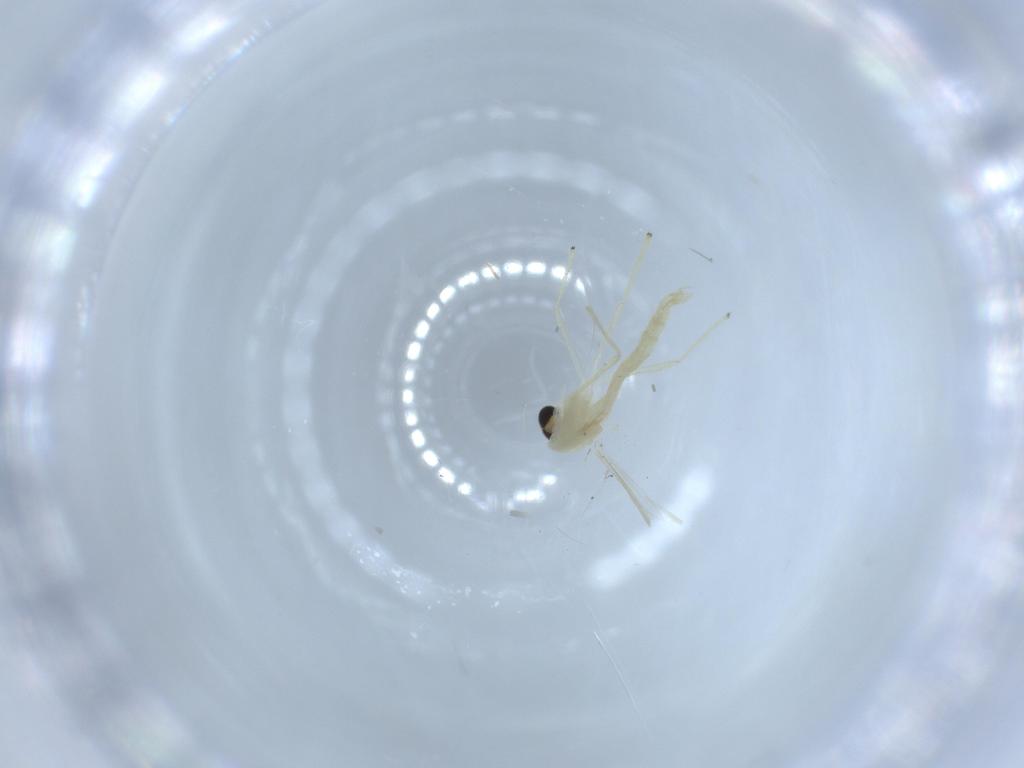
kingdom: Animalia
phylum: Arthropoda
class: Insecta
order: Diptera
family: Chironomidae
